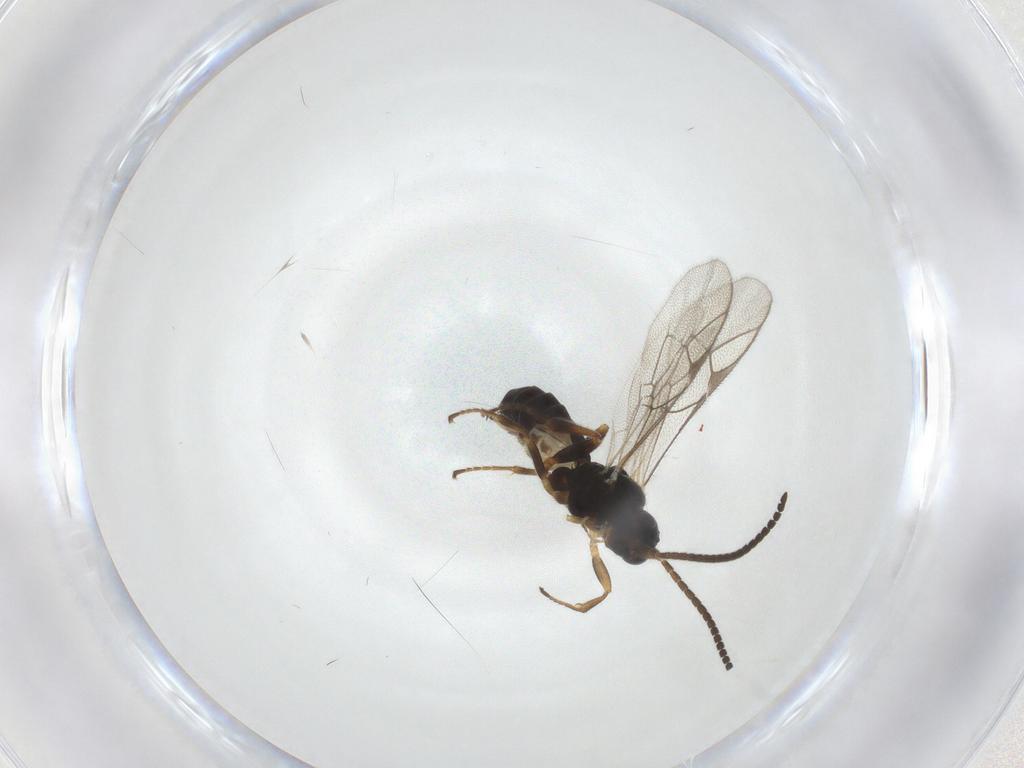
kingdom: Animalia
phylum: Arthropoda
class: Insecta
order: Hymenoptera
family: Ichneumonidae
